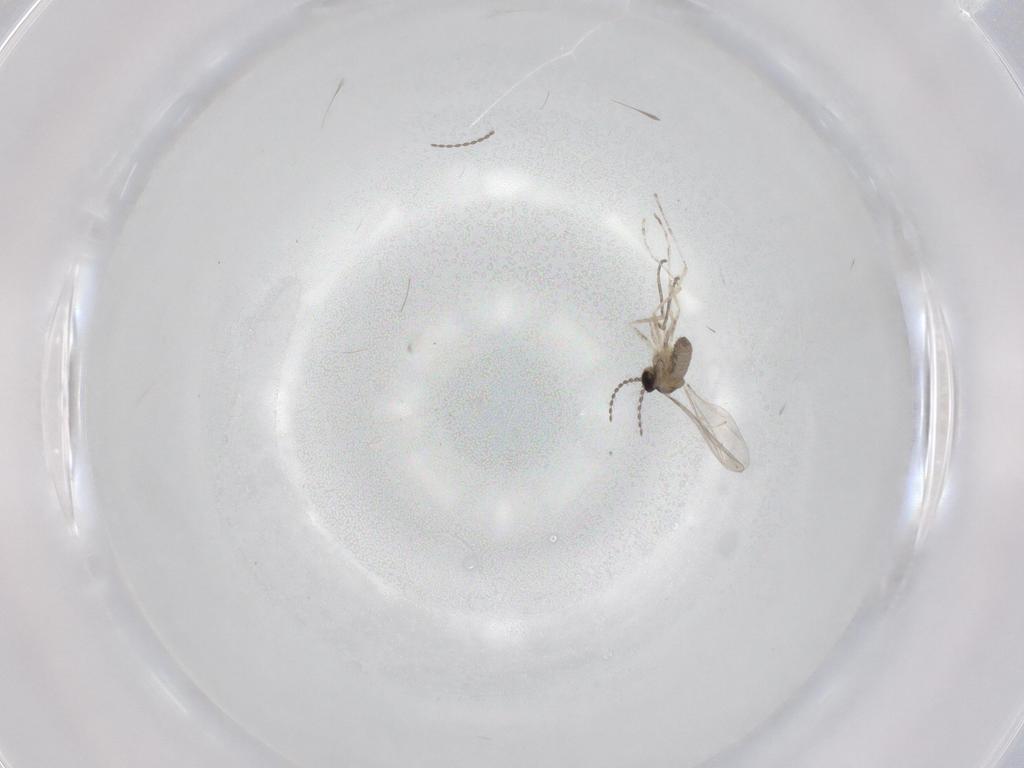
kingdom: Animalia
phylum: Arthropoda
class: Insecta
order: Diptera
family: Cecidomyiidae
